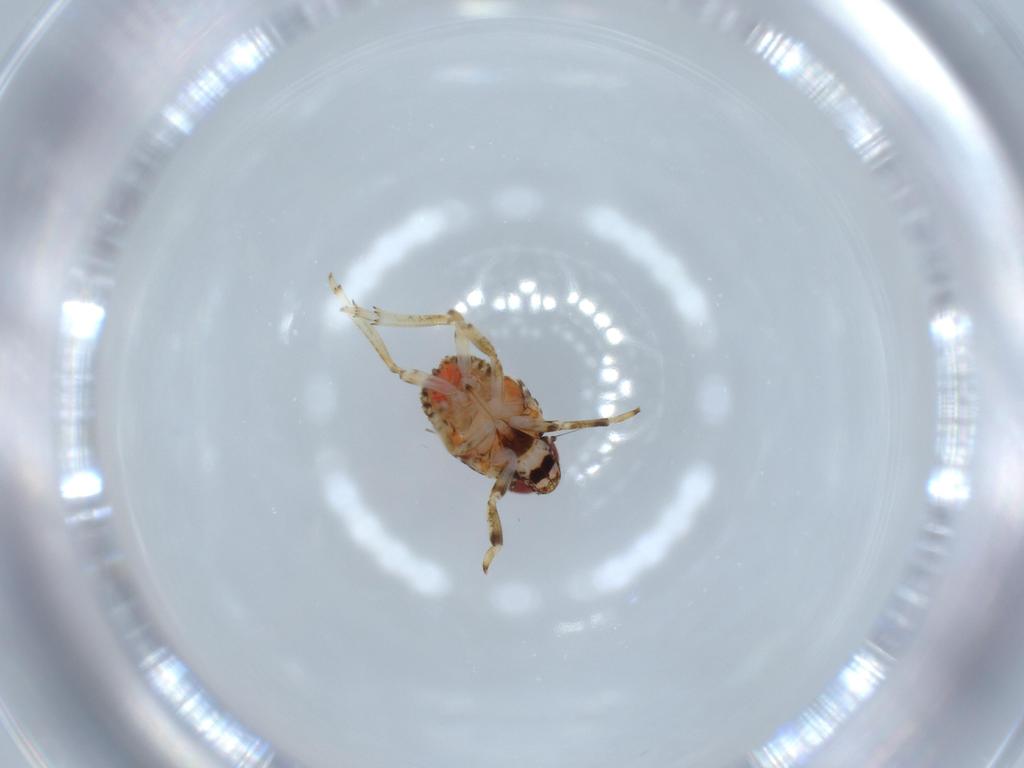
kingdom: Animalia
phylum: Arthropoda
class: Insecta
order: Hemiptera
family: Issidae
